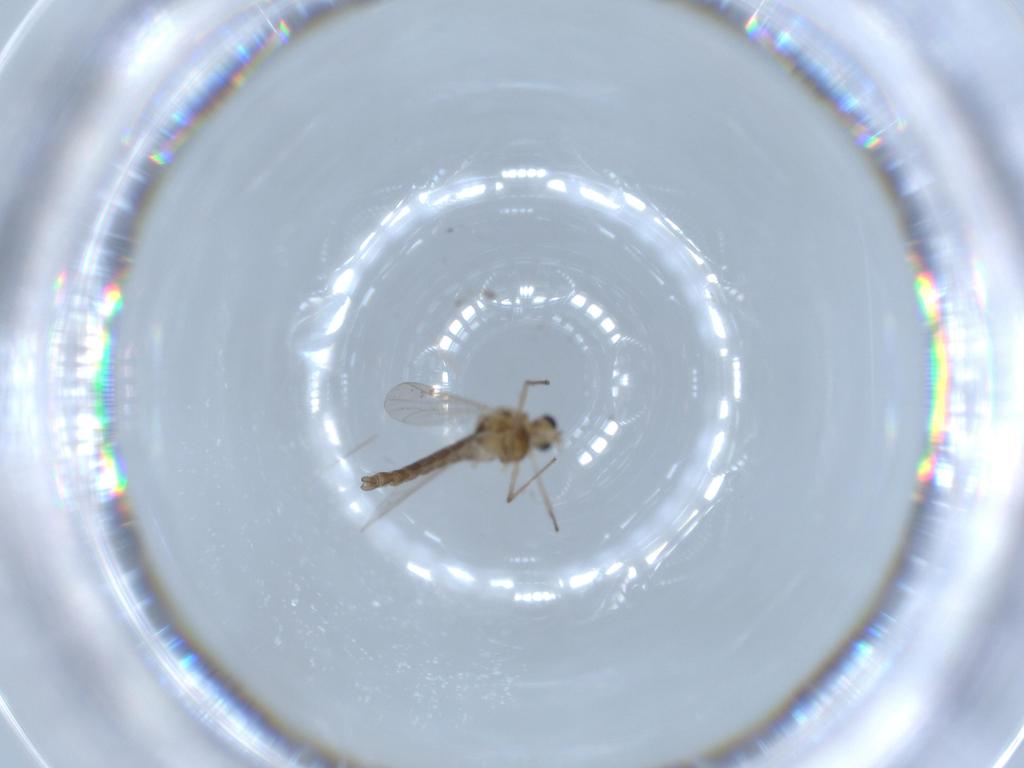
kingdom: Animalia
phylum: Arthropoda
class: Insecta
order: Diptera
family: Chironomidae
